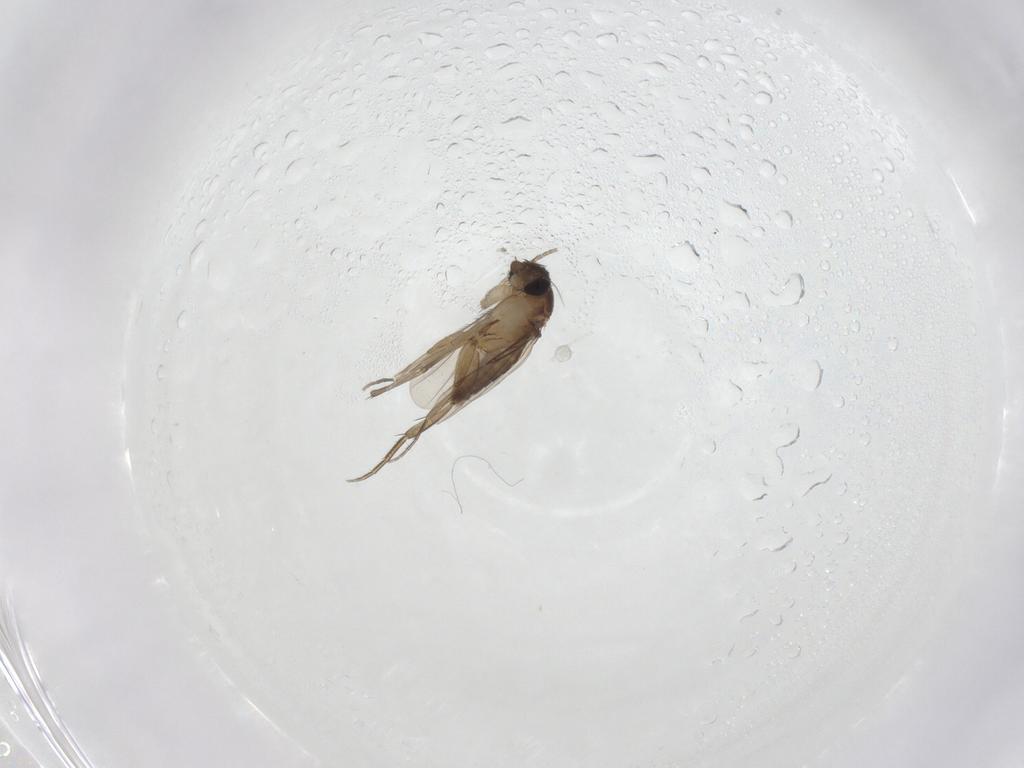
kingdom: Animalia
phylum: Arthropoda
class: Insecta
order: Diptera
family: Phoridae
